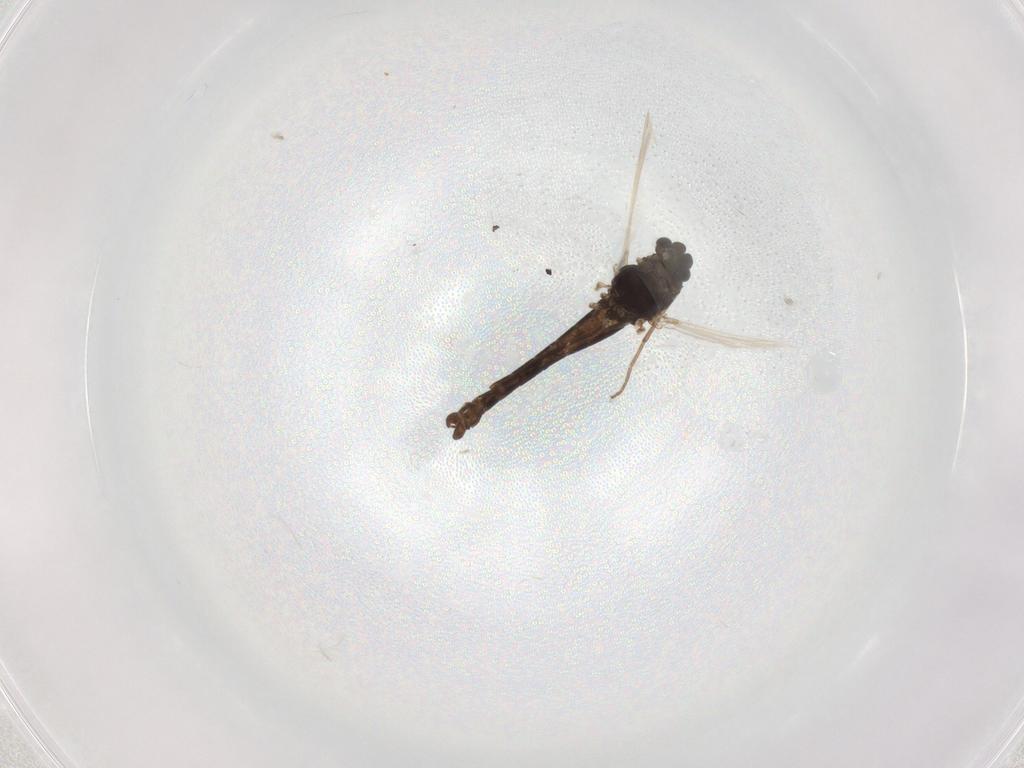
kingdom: Animalia
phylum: Arthropoda
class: Insecta
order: Diptera
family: Chironomidae
